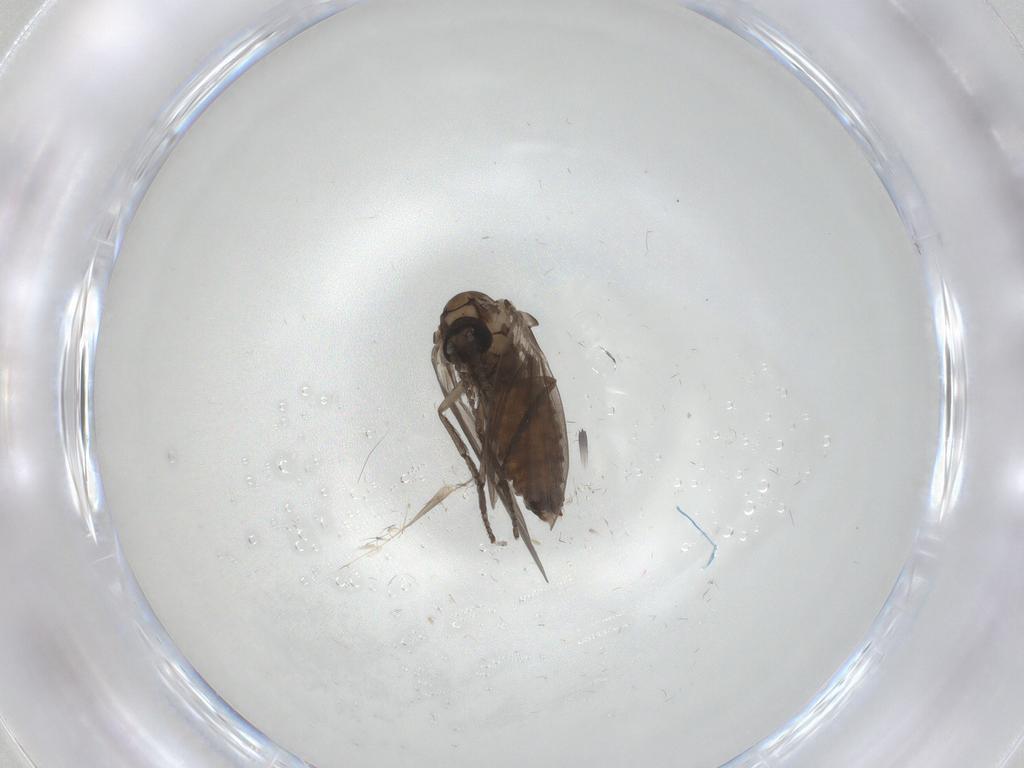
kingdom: Animalia
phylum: Arthropoda
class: Insecta
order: Diptera
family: Psychodidae
